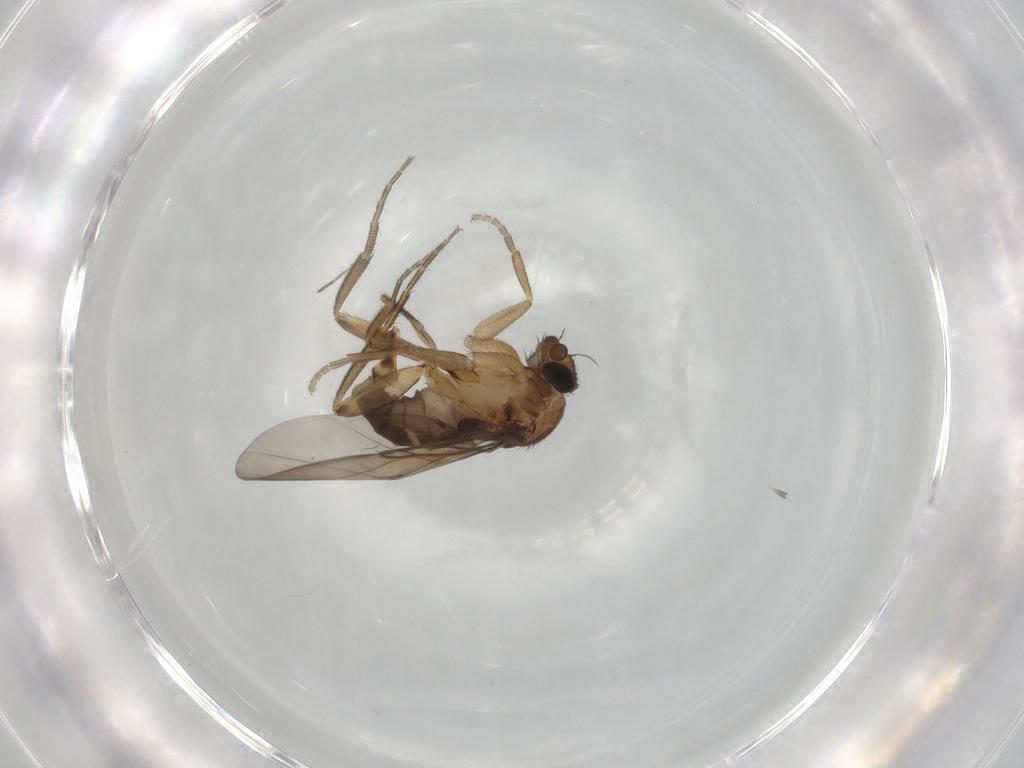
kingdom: Animalia
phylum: Arthropoda
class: Insecta
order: Diptera
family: Phoridae
